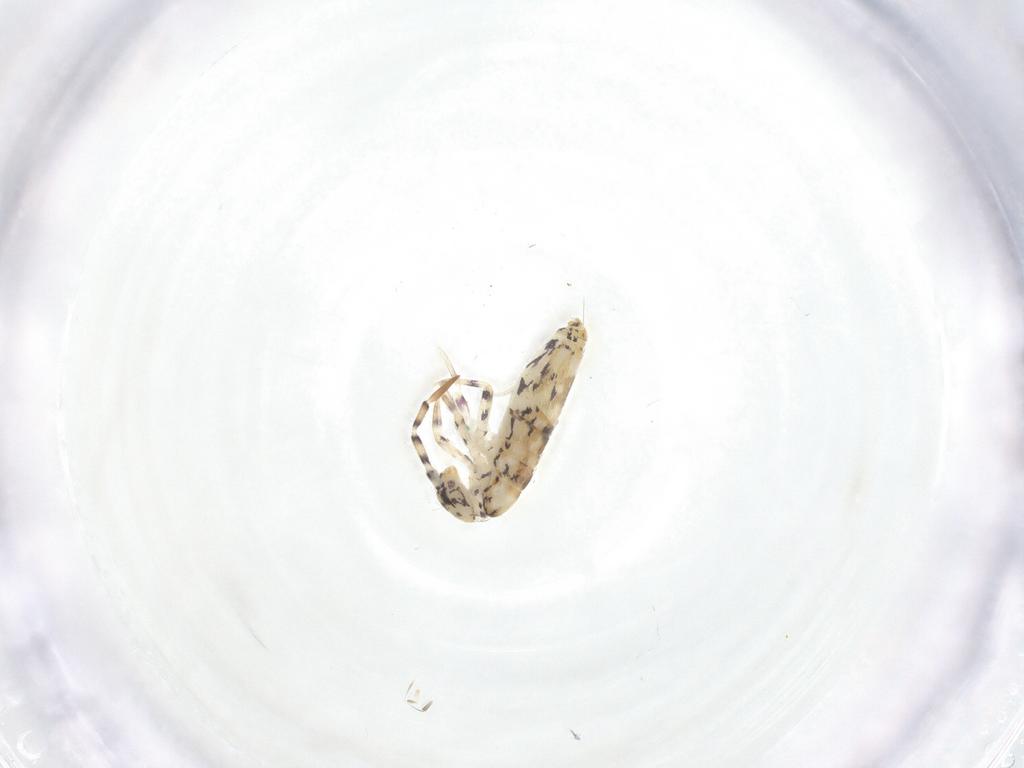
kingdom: Animalia
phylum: Arthropoda
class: Collembola
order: Entomobryomorpha
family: Entomobryidae
